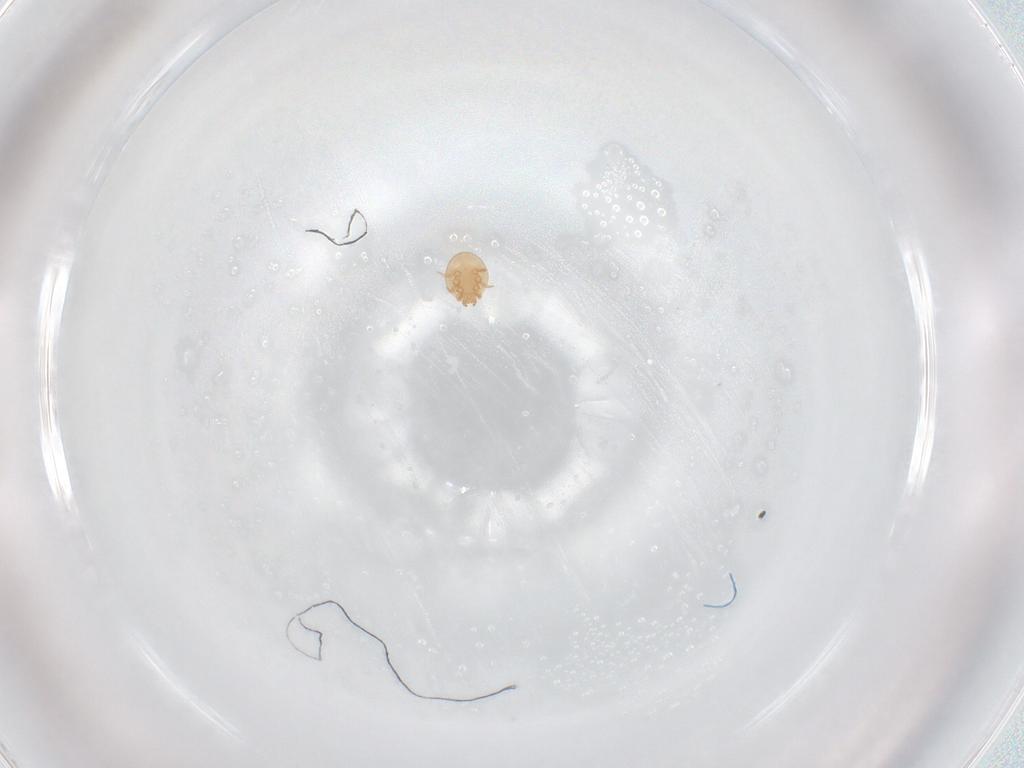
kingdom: Animalia
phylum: Arthropoda
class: Arachnida
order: Mesostigmata
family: Trematuridae
